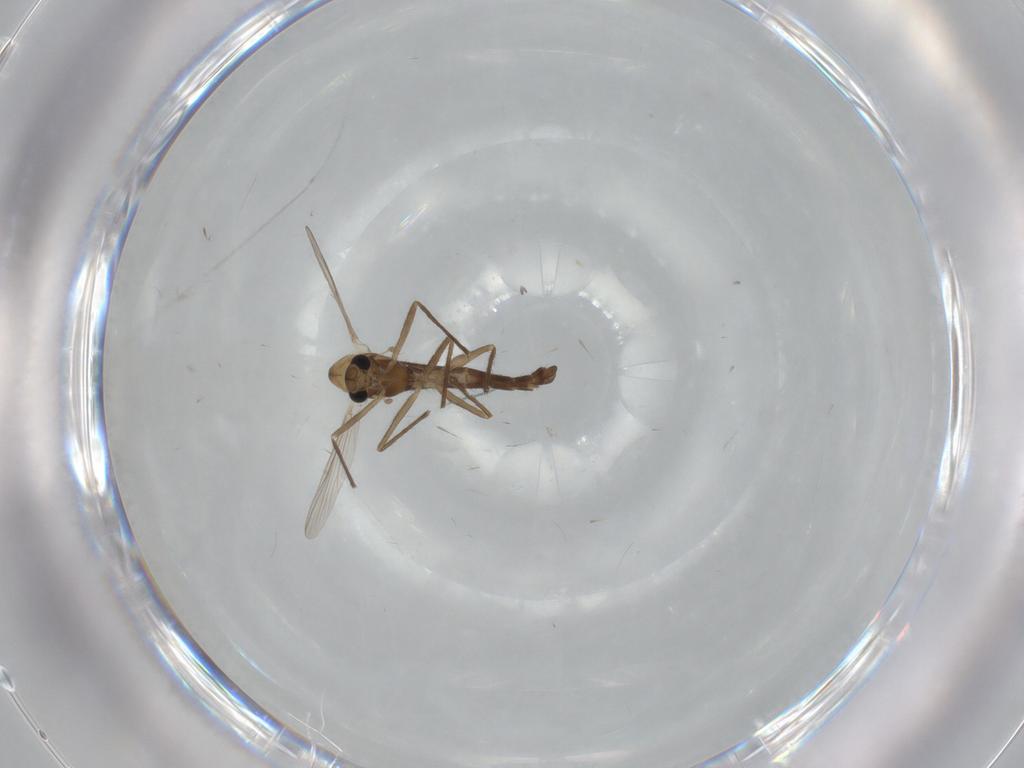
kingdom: Animalia
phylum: Arthropoda
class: Insecta
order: Diptera
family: Chironomidae
